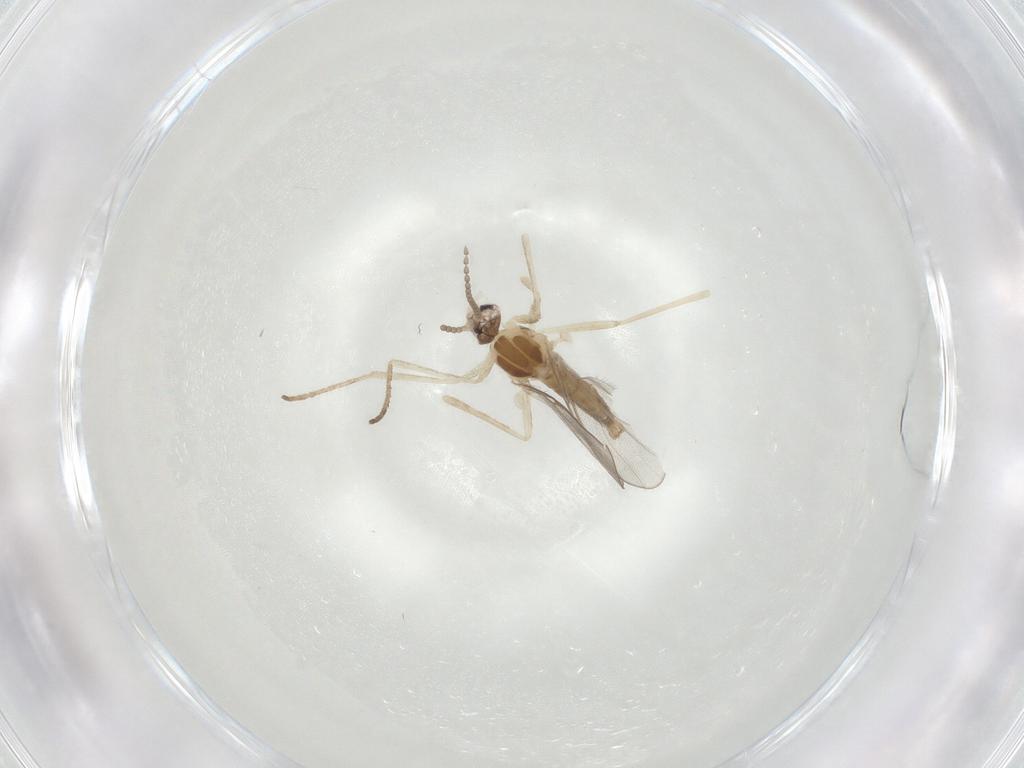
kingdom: Animalia
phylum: Arthropoda
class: Insecta
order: Diptera
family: Cecidomyiidae
